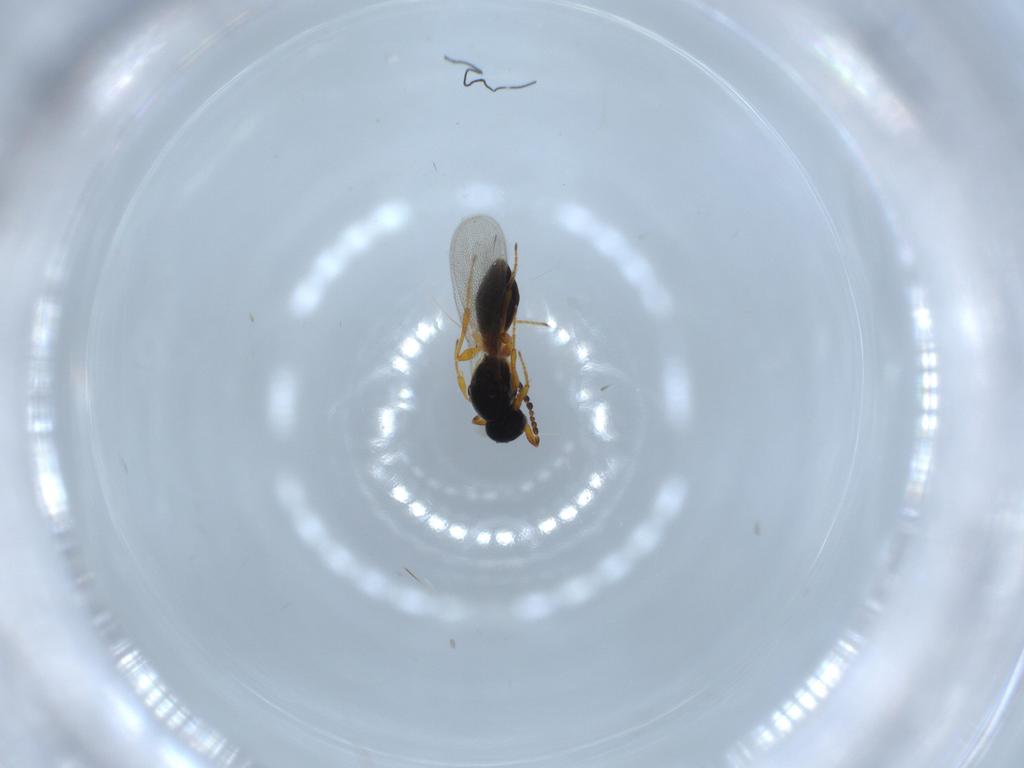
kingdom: Animalia
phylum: Arthropoda
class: Insecta
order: Hymenoptera
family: Platygastridae
